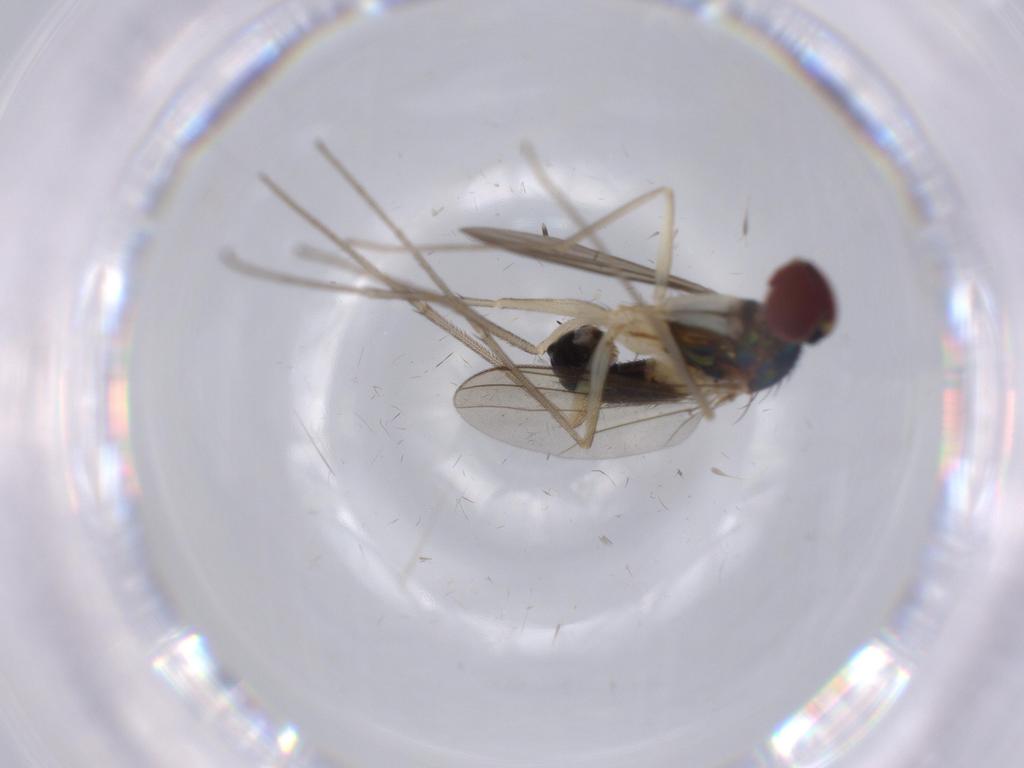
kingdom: Animalia
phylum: Arthropoda
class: Insecta
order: Diptera
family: Dolichopodidae
